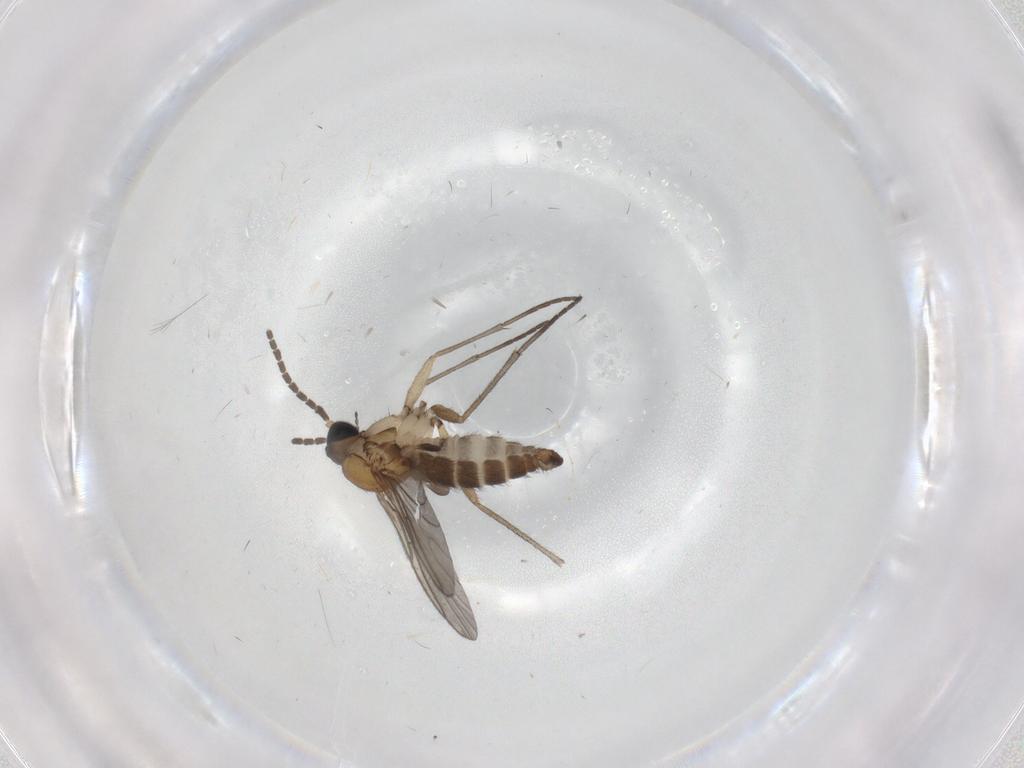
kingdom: Animalia
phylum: Arthropoda
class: Insecta
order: Diptera
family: Sciaridae
